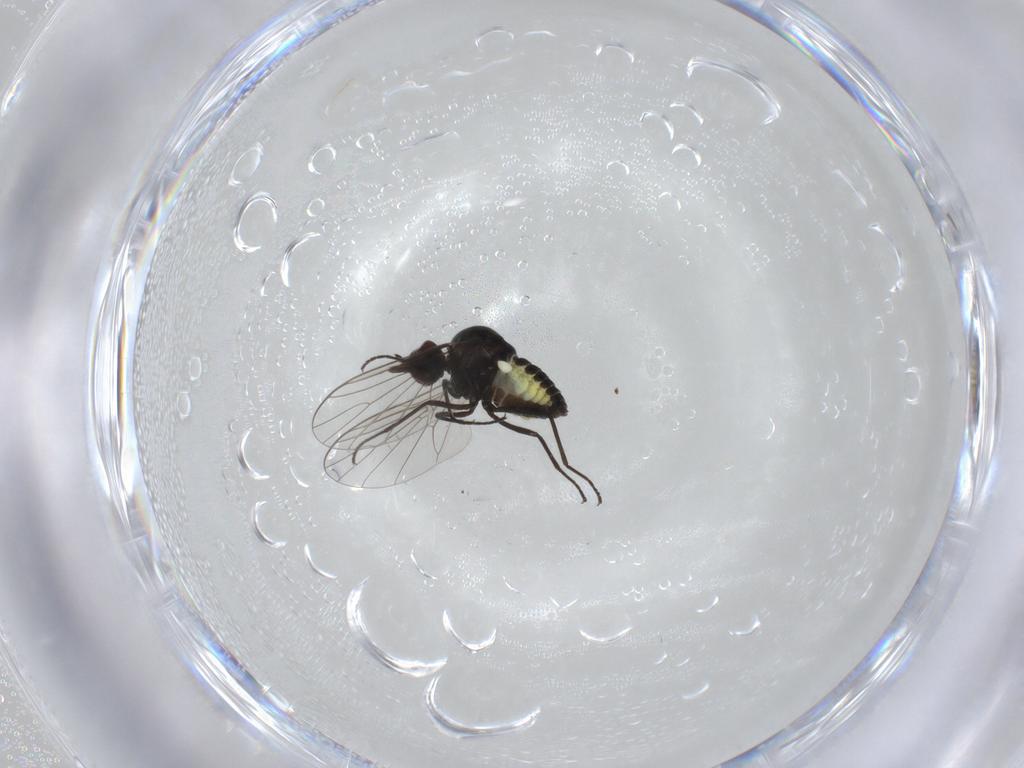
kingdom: Animalia
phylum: Arthropoda
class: Insecta
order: Diptera
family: Bombyliidae
